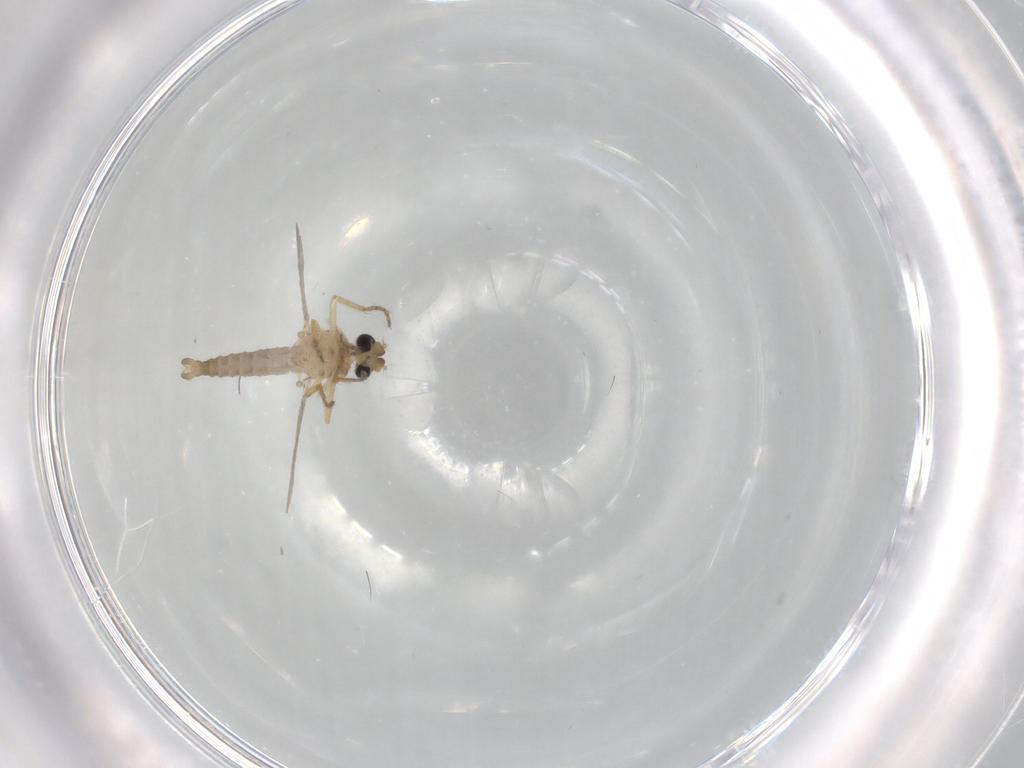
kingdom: Animalia
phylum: Arthropoda
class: Insecta
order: Diptera
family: Ceratopogonidae
